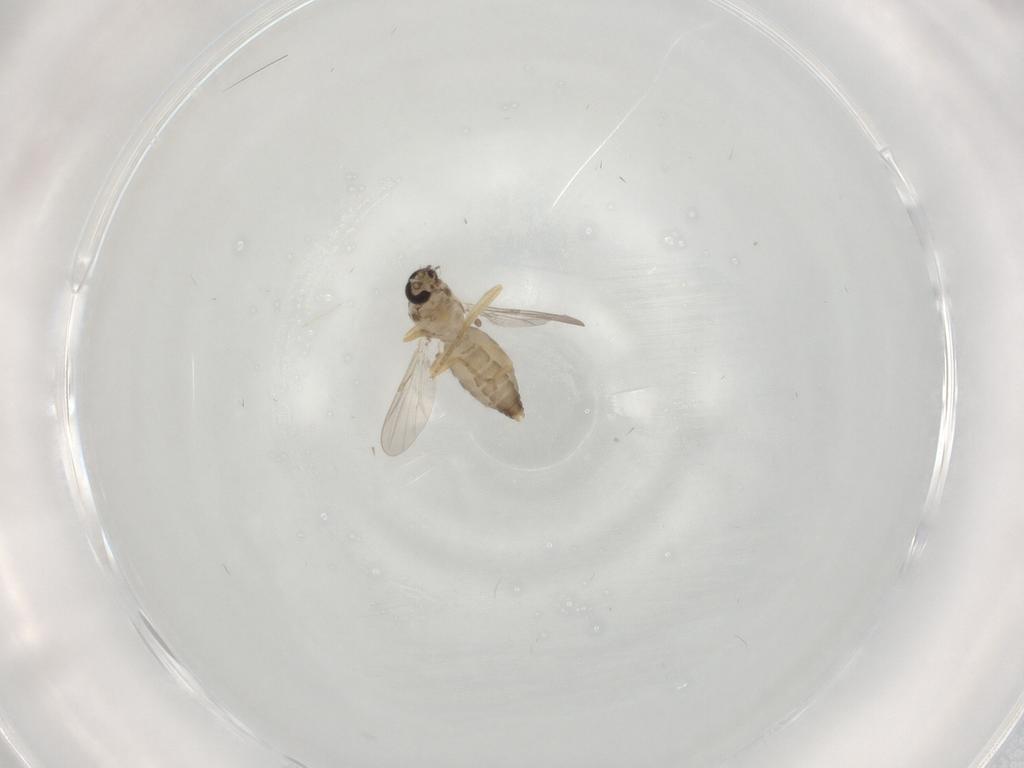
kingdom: Animalia
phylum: Arthropoda
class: Insecta
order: Diptera
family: Ceratopogonidae
